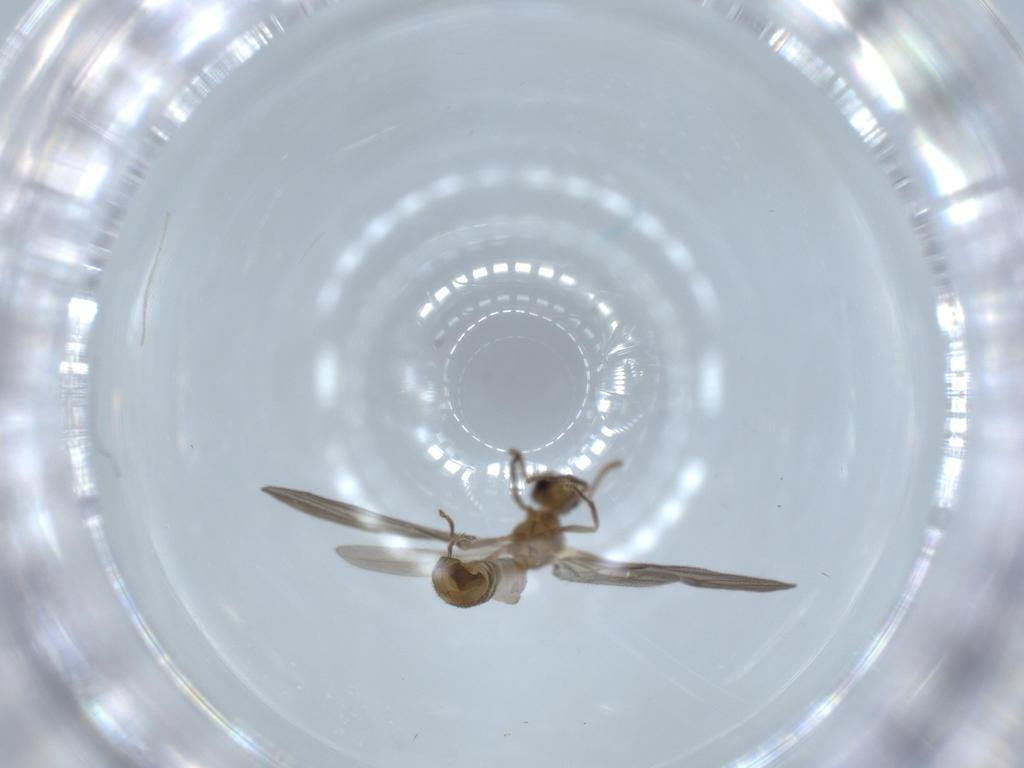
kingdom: Animalia
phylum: Arthropoda
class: Insecta
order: Hymenoptera
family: Formicidae
